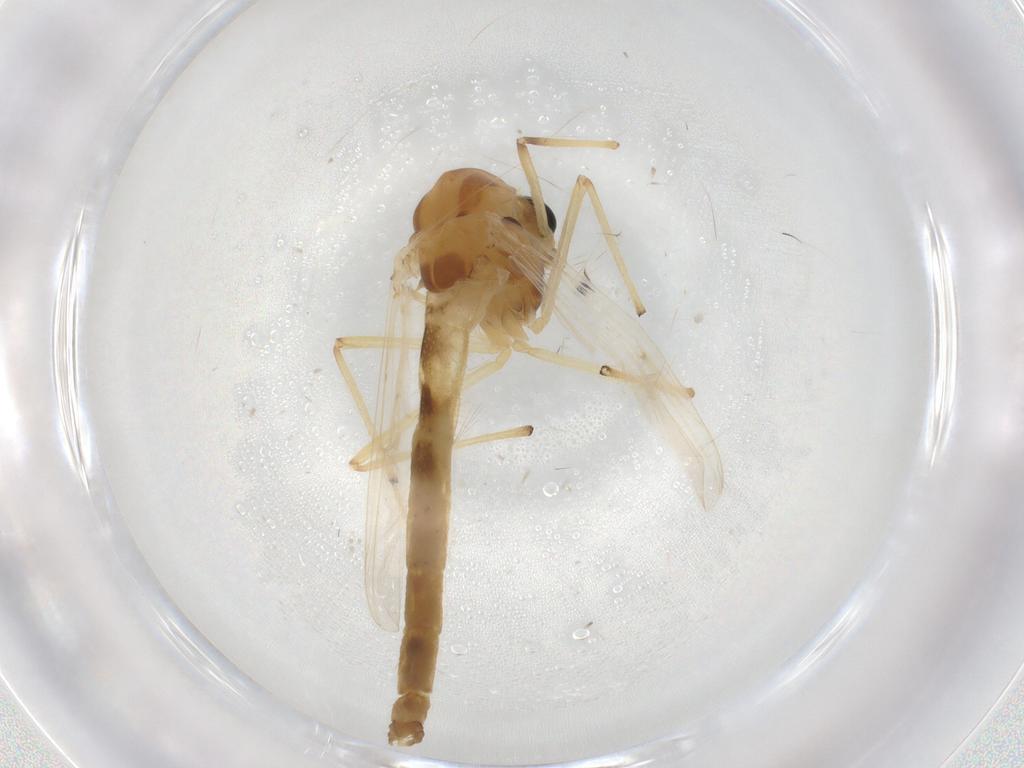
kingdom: Animalia
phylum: Arthropoda
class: Insecta
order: Diptera
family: Chironomidae
